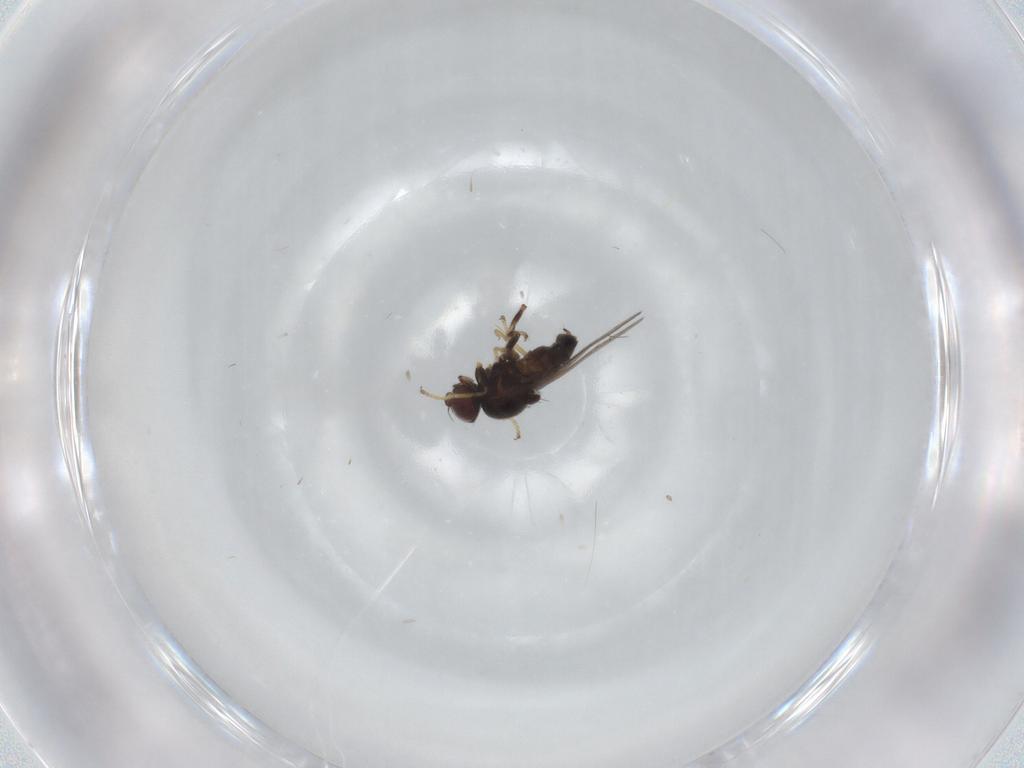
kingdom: Animalia
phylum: Arthropoda
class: Insecta
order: Diptera
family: Chloropidae
